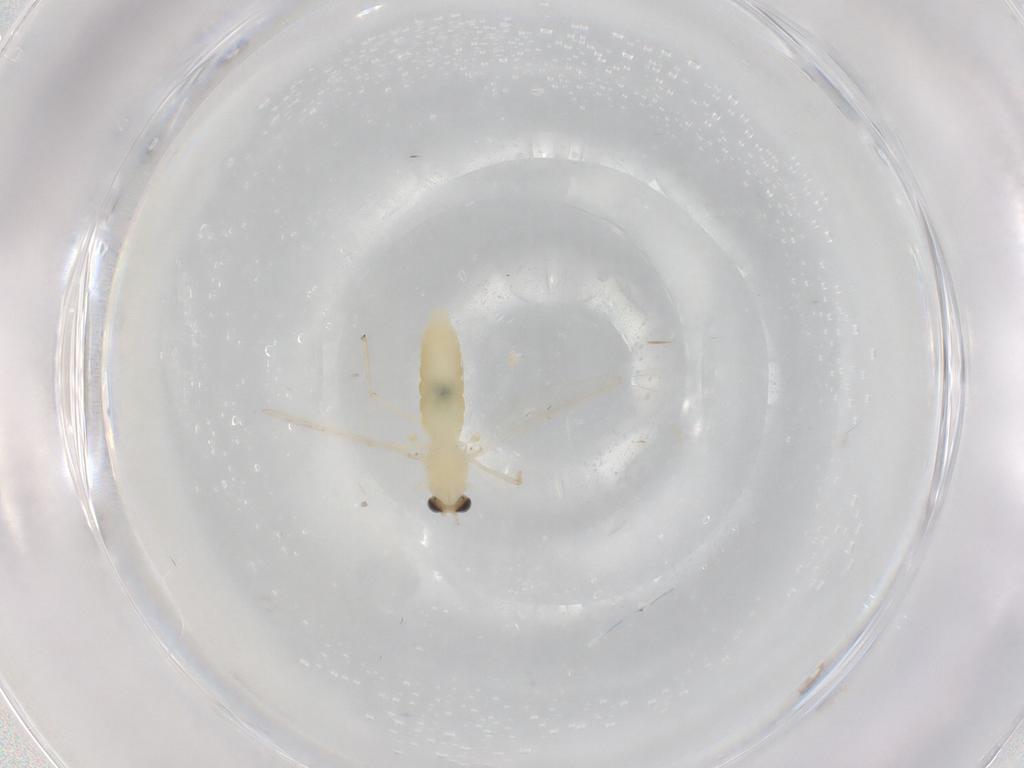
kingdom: Animalia
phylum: Arthropoda
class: Insecta
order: Diptera
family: Chironomidae
